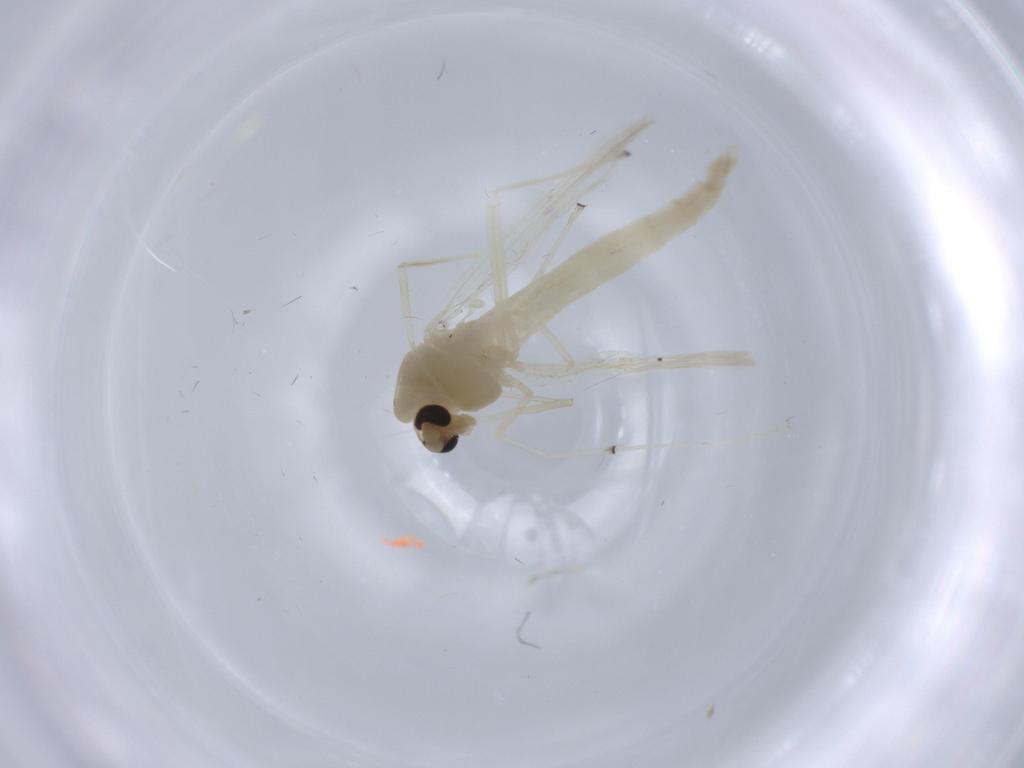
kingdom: Animalia
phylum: Arthropoda
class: Insecta
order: Diptera
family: Chironomidae
